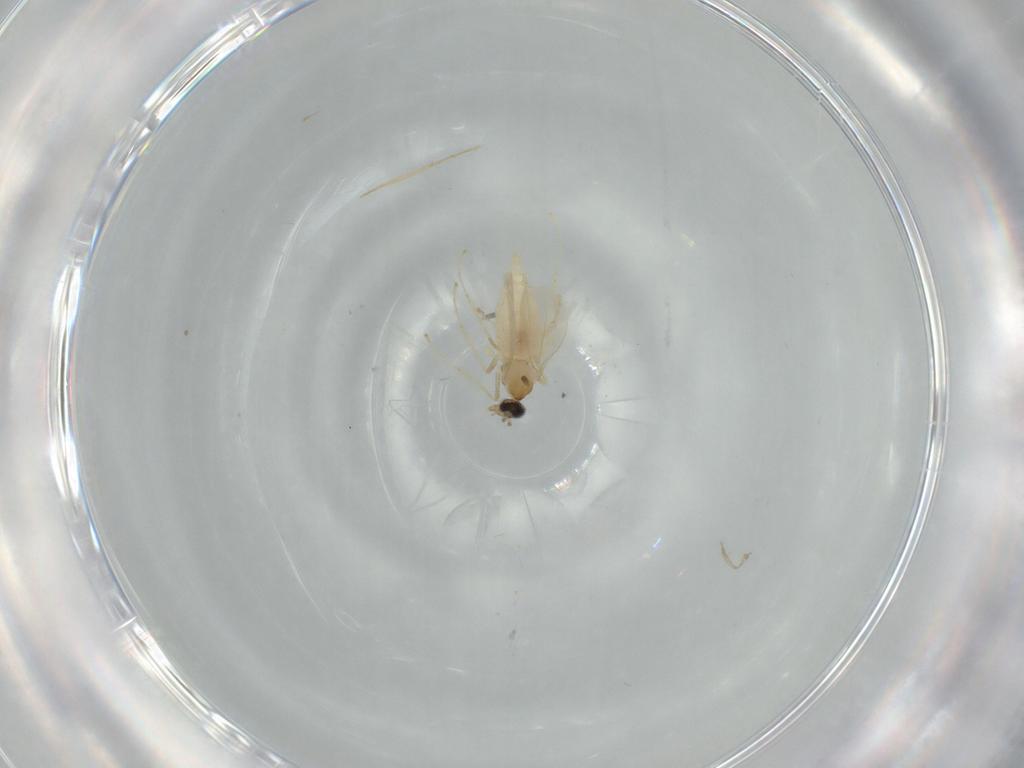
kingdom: Animalia
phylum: Arthropoda
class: Insecta
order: Diptera
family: Cecidomyiidae
